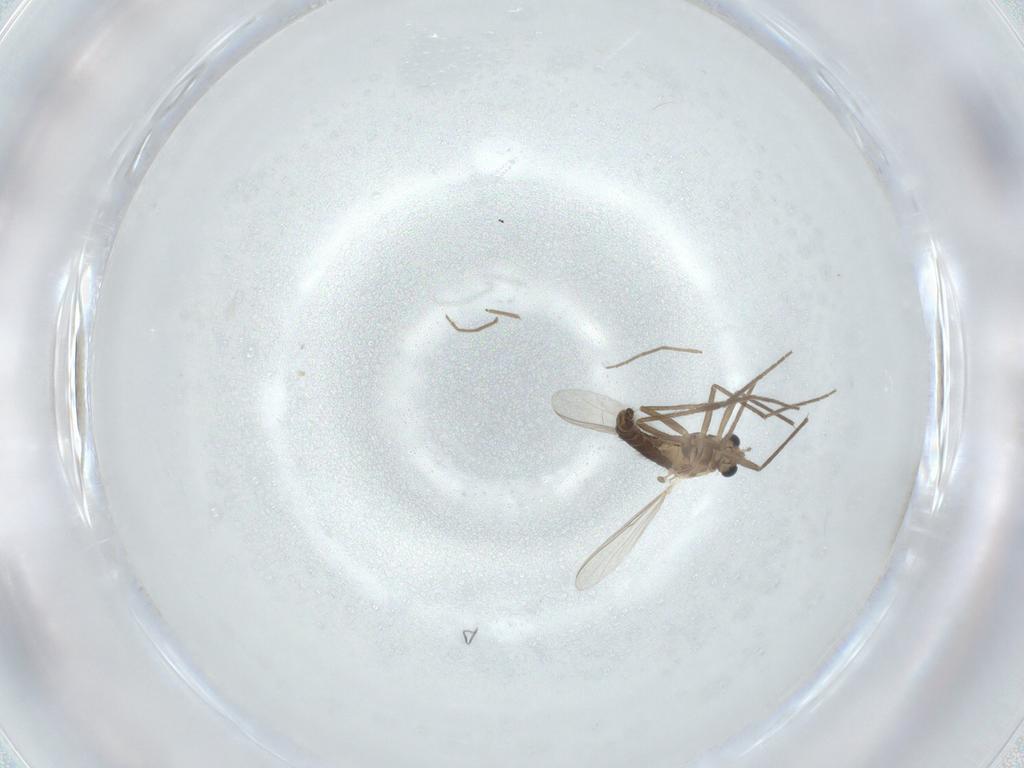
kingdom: Animalia
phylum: Arthropoda
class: Insecta
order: Diptera
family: Chironomidae
